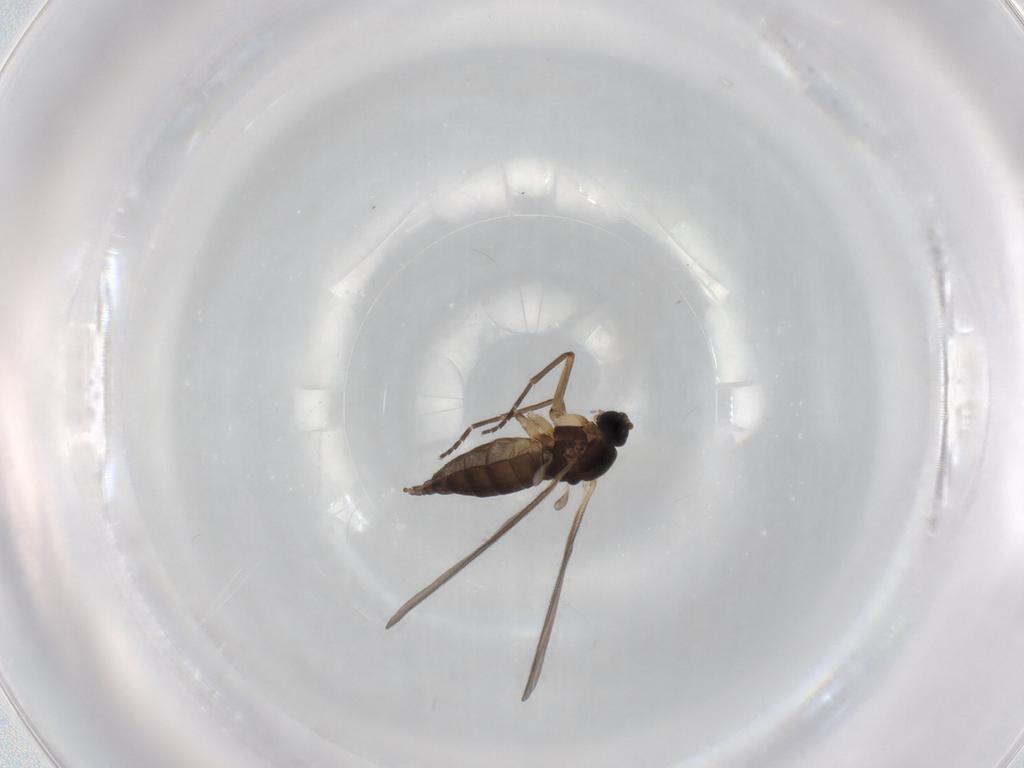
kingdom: Animalia
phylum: Arthropoda
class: Insecta
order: Diptera
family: Sciaridae
